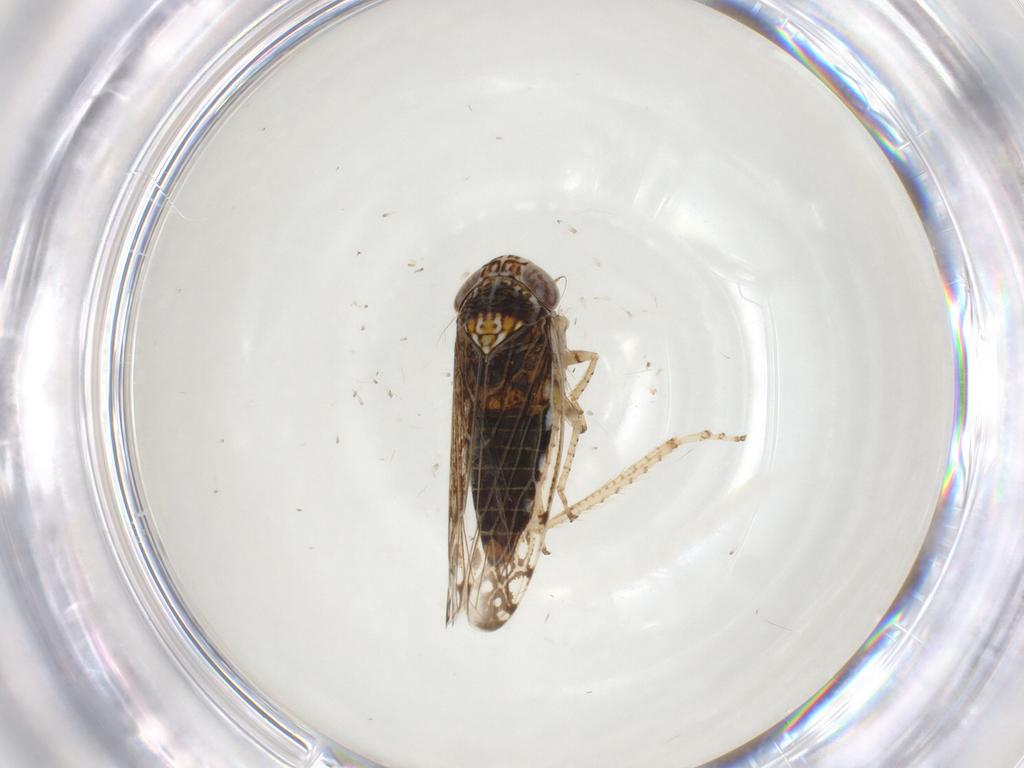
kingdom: Animalia
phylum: Arthropoda
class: Insecta
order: Hemiptera
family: Cicadellidae
